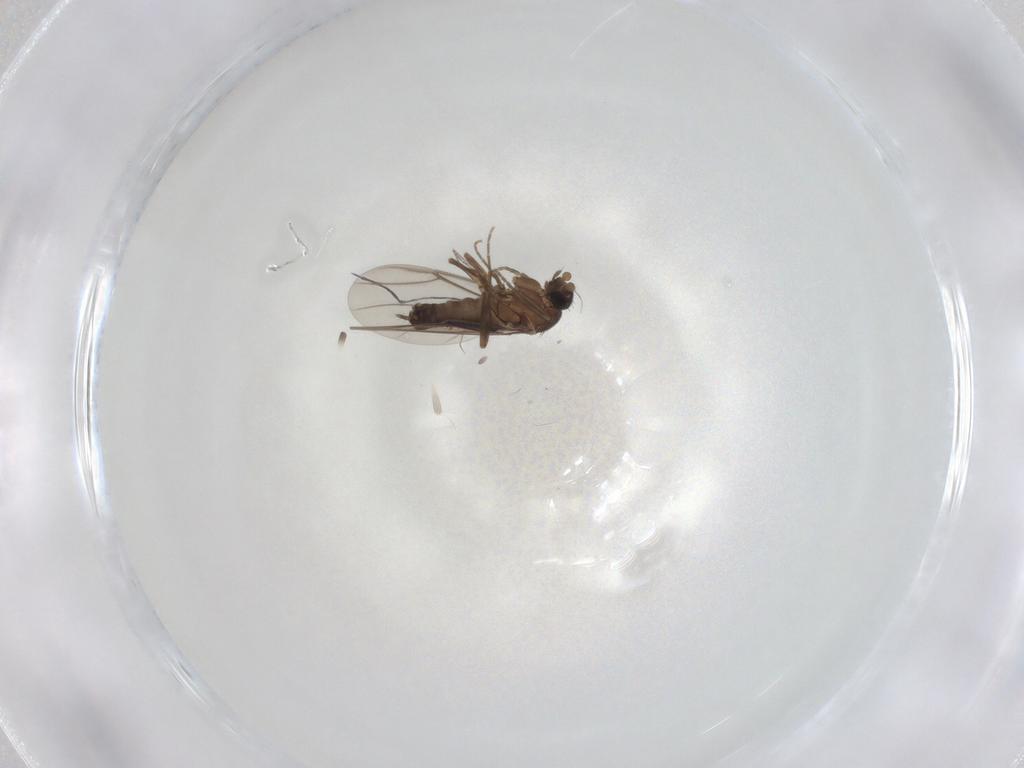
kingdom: Animalia
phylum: Arthropoda
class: Insecta
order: Diptera
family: Phoridae
